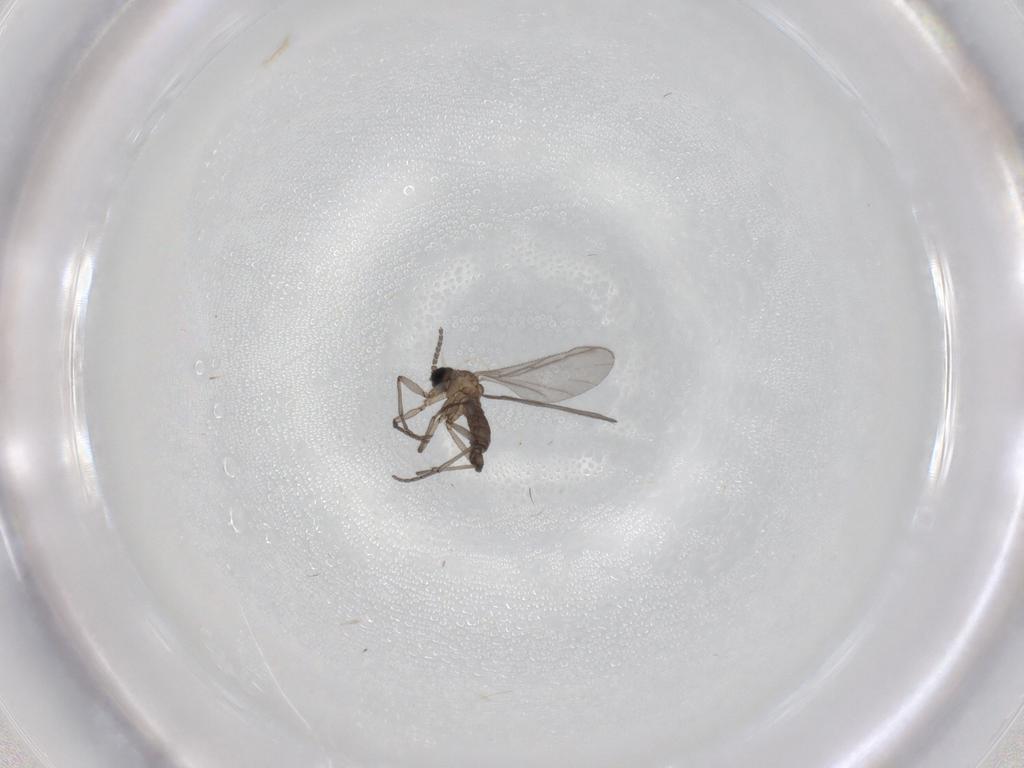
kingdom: Animalia
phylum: Arthropoda
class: Insecta
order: Diptera
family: Sciaridae
